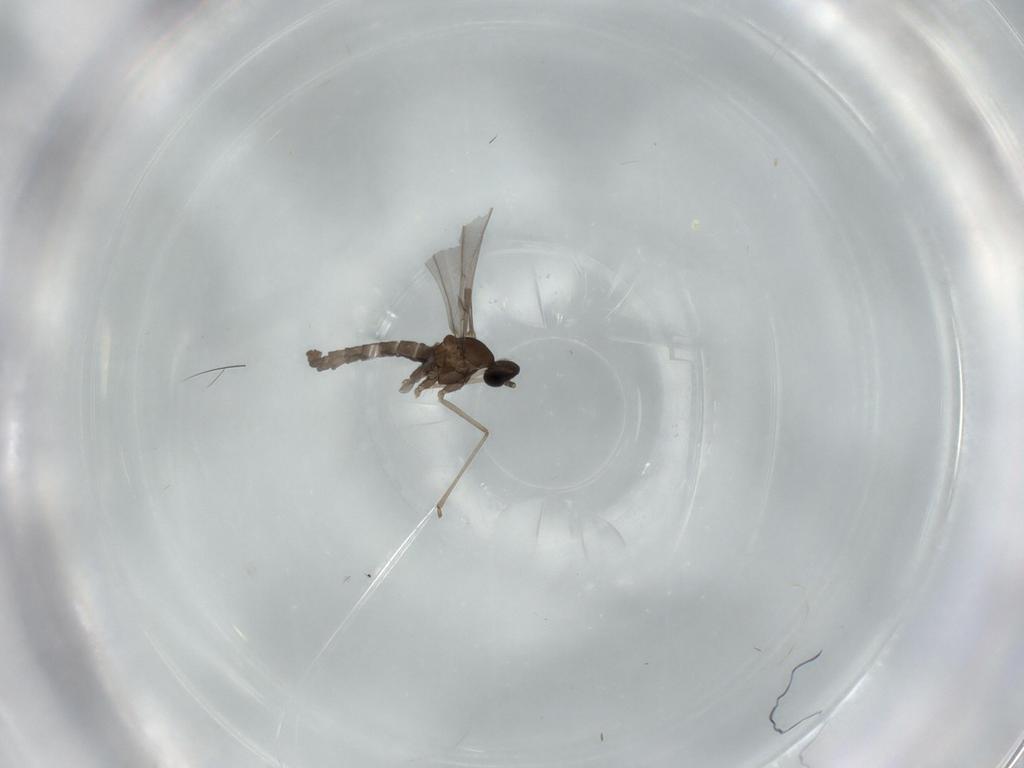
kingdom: Animalia
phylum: Arthropoda
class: Insecta
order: Diptera
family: Cecidomyiidae
